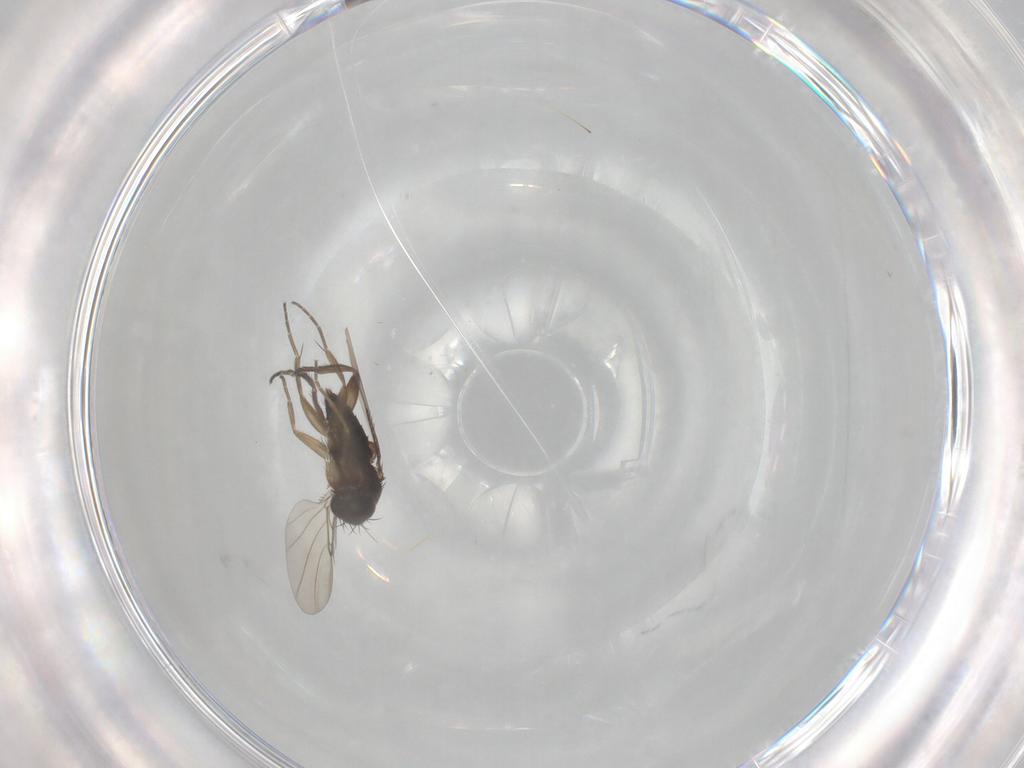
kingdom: Animalia
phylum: Arthropoda
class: Insecta
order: Diptera
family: Phoridae
